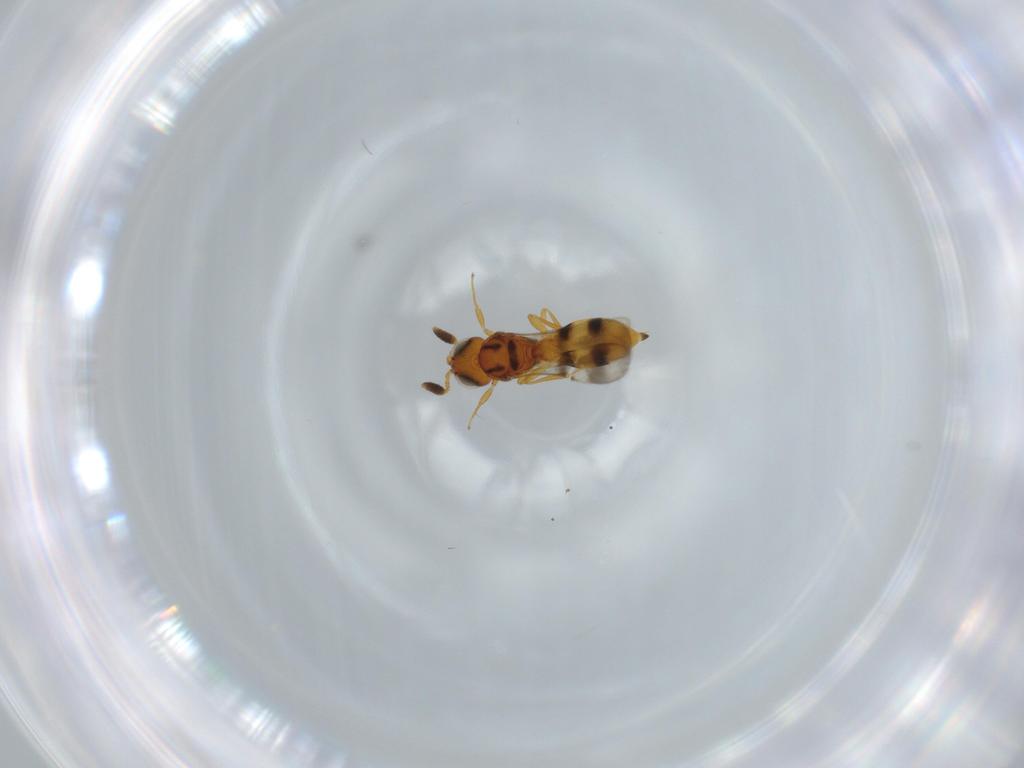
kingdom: Animalia
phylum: Arthropoda
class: Insecta
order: Hymenoptera
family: Scelionidae
